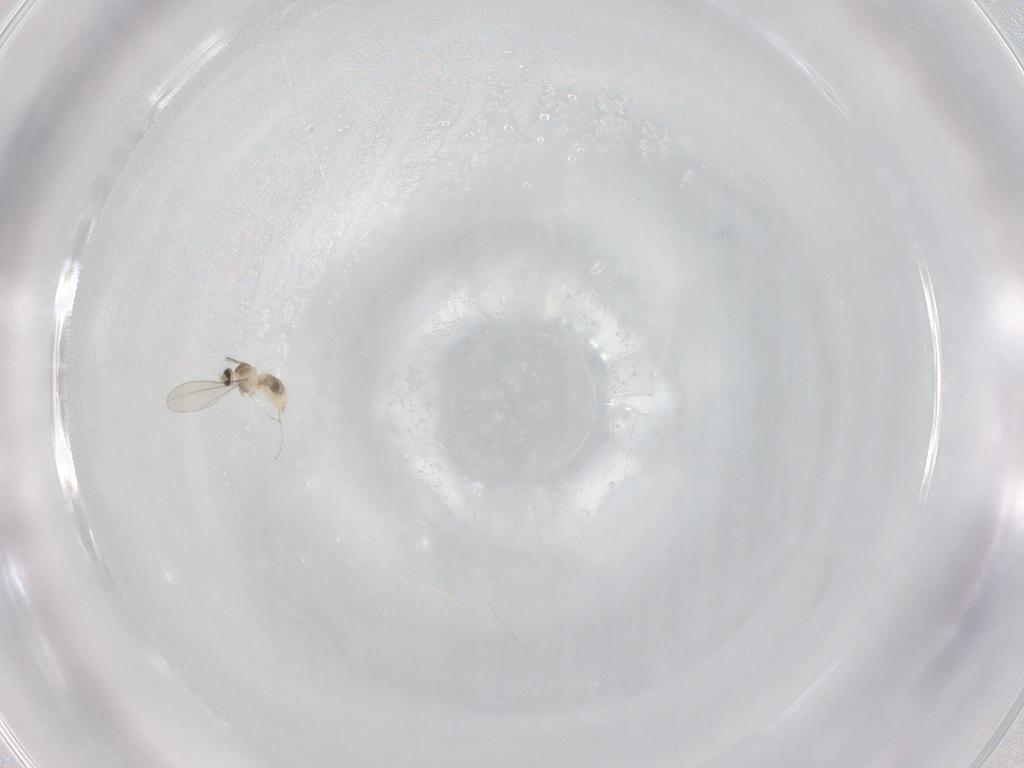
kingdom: Animalia
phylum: Arthropoda
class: Insecta
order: Diptera
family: Cecidomyiidae
